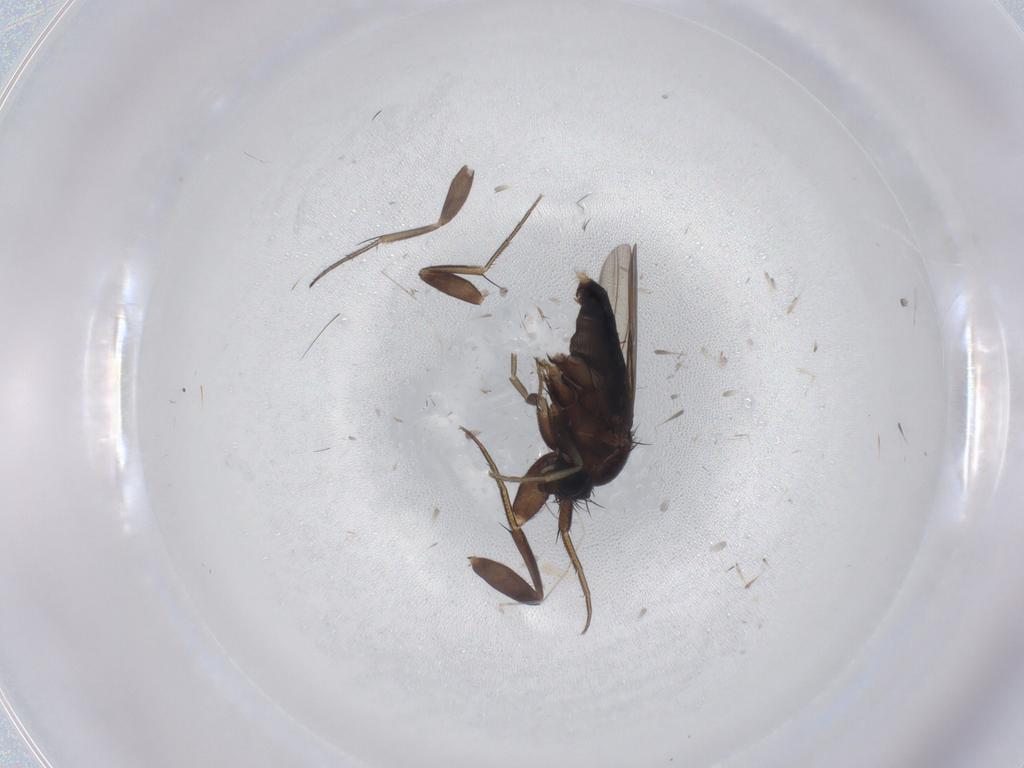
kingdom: Animalia
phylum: Arthropoda
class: Insecta
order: Diptera
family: Phoridae
